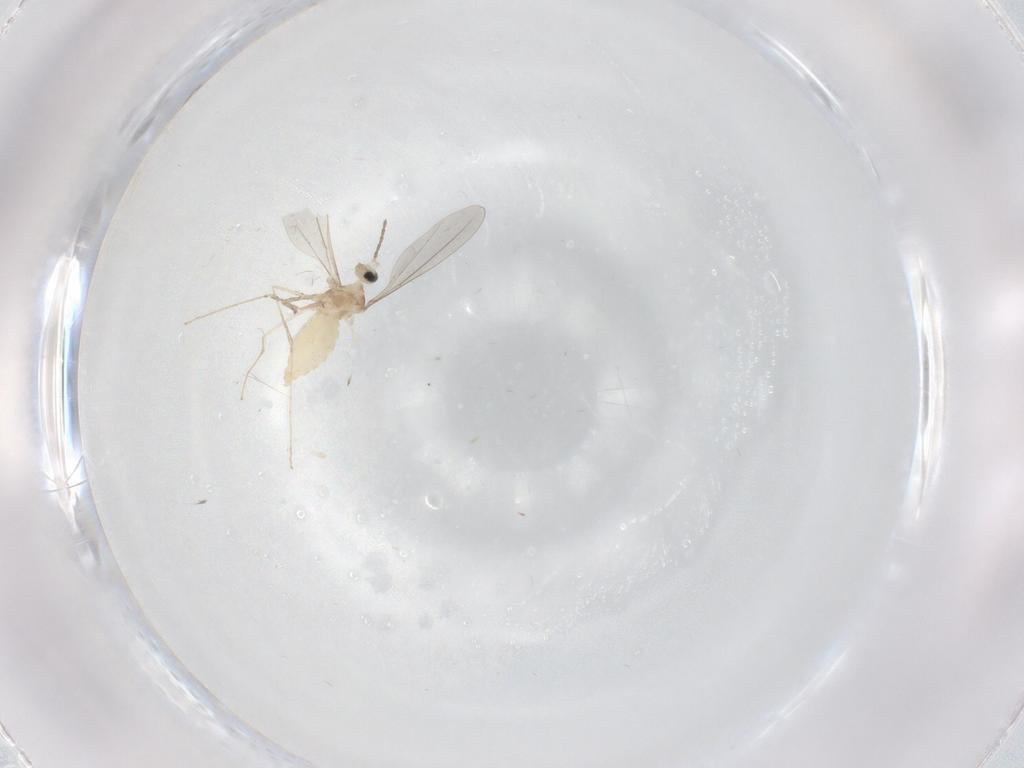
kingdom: Animalia
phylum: Arthropoda
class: Insecta
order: Diptera
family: Cecidomyiidae
